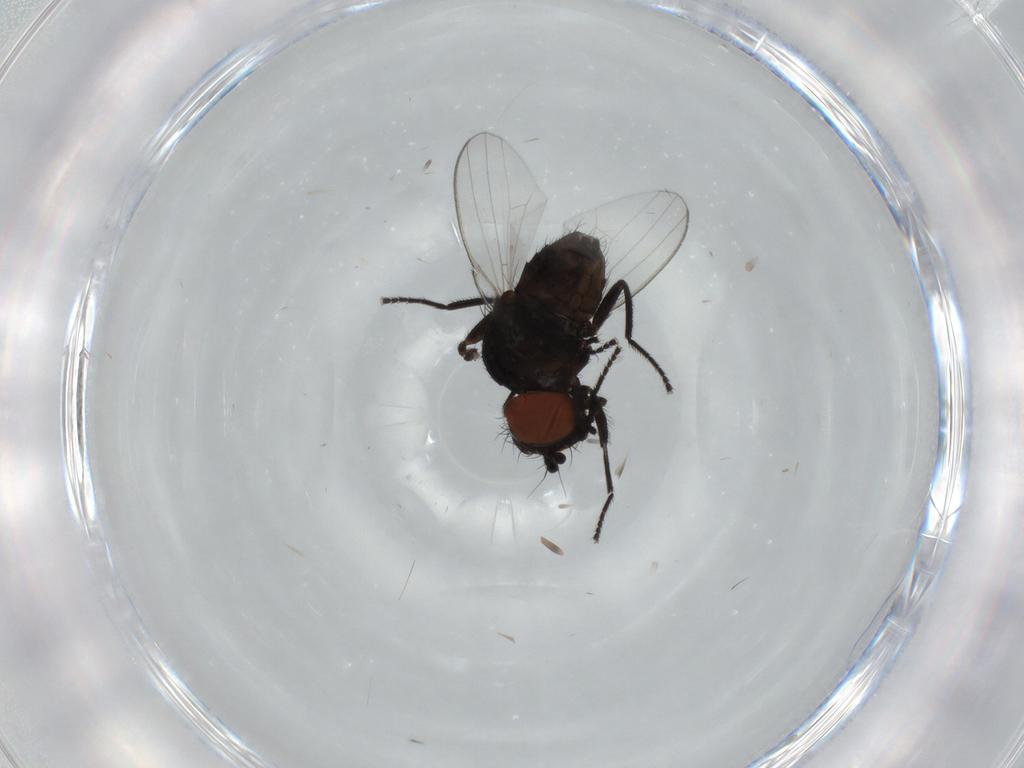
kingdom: Animalia
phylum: Arthropoda
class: Insecta
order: Diptera
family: Milichiidae
